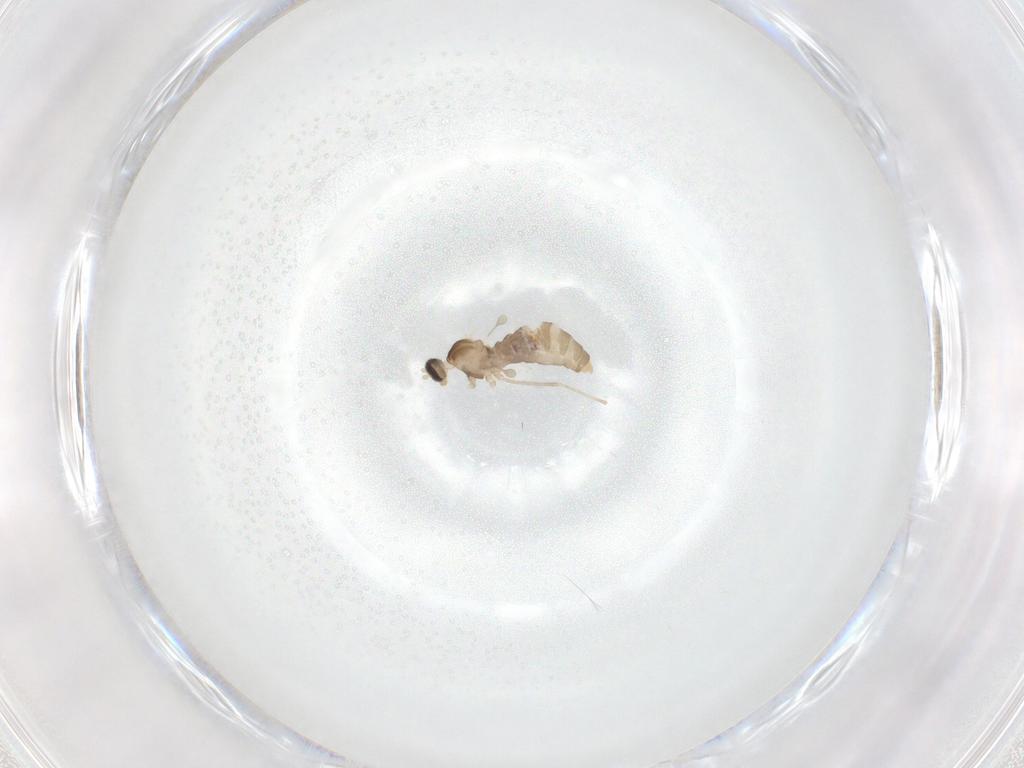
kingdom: Animalia
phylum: Arthropoda
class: Insecta
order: Diptera
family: Cecidomyiidae
